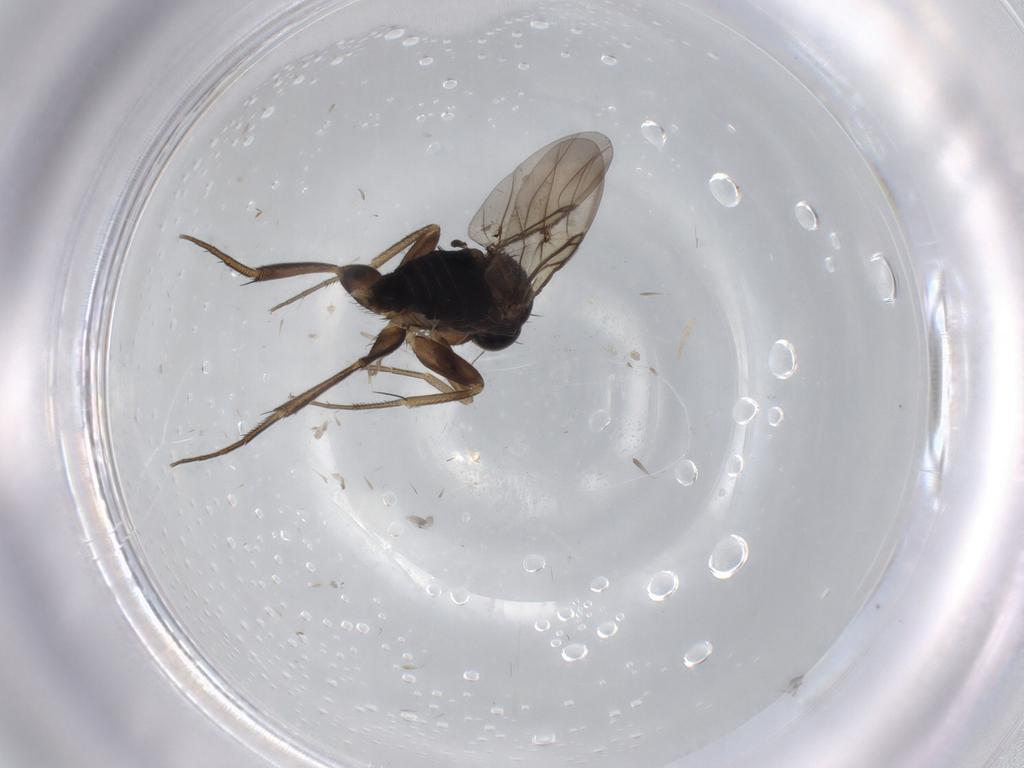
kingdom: Animalia
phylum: Arthropoda
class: Insecta
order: Diptera
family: Phoridae
